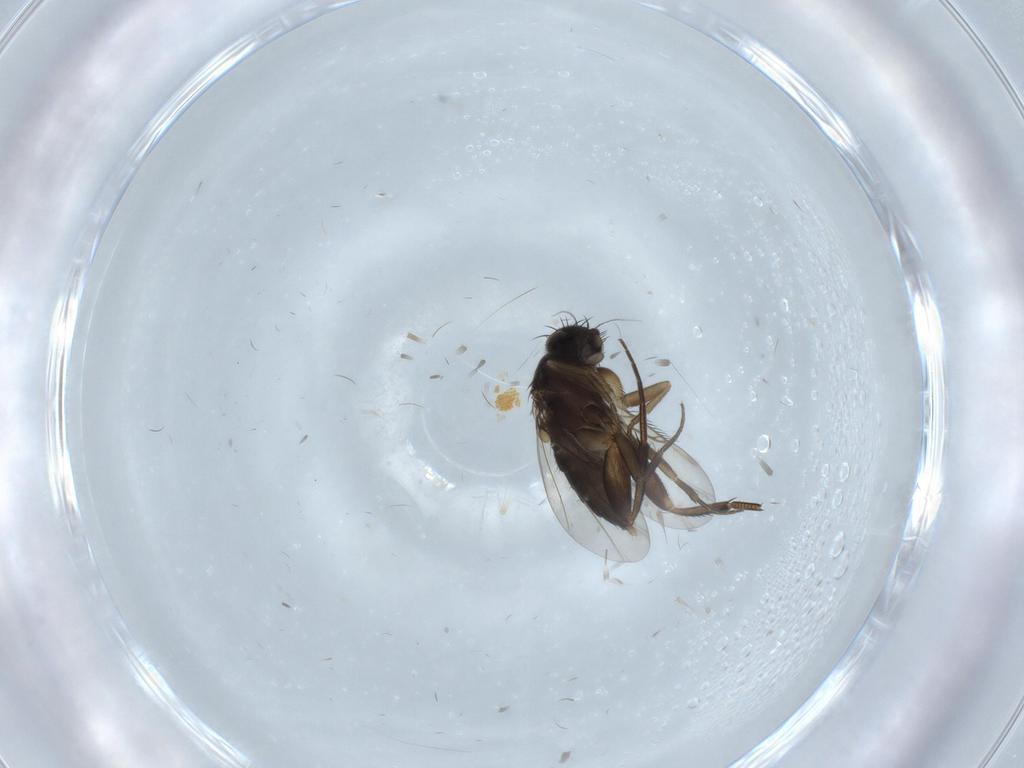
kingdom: Animalia
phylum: Arthropoda
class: Insecta
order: Diptera
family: Phoridae
